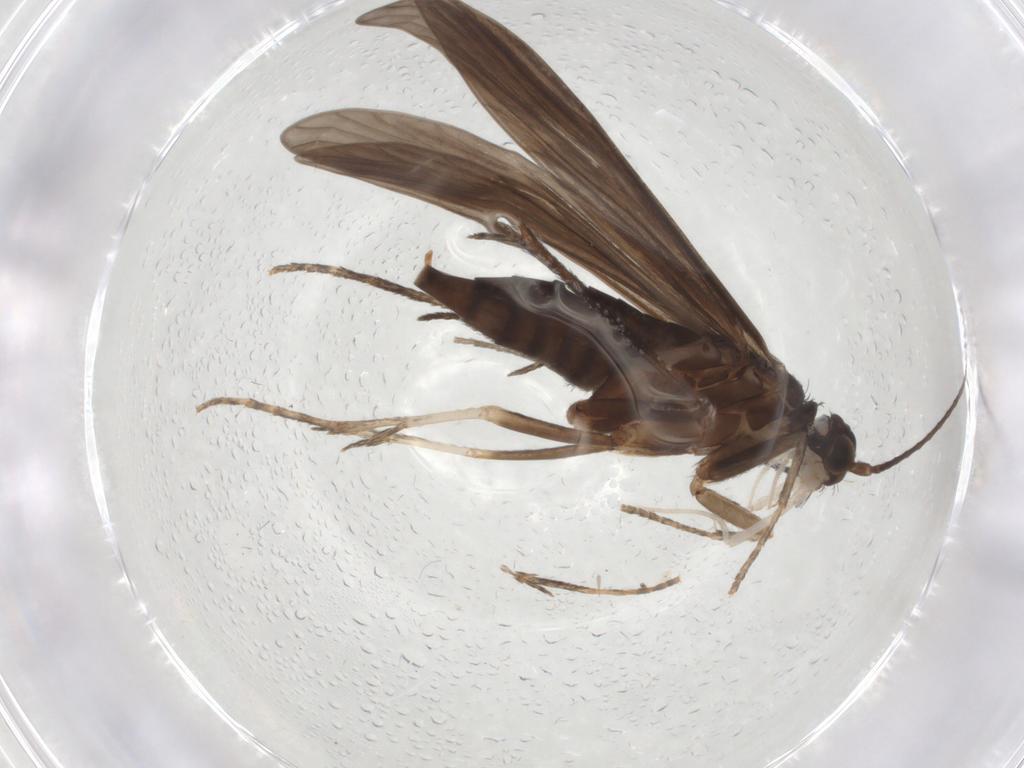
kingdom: Animalia
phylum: Arthropoda
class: Insecta
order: Trichoptera
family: Xiphocentronidae
